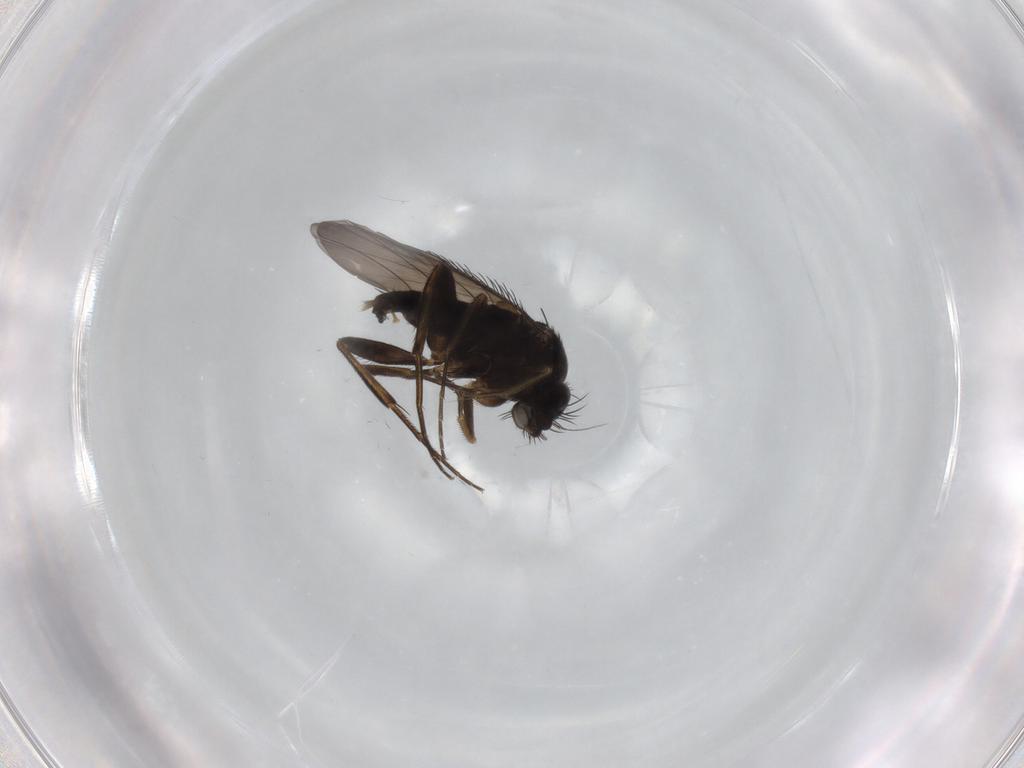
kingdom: Animalia
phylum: Arthropoda
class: Insecta
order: Diptera
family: Phoridae
